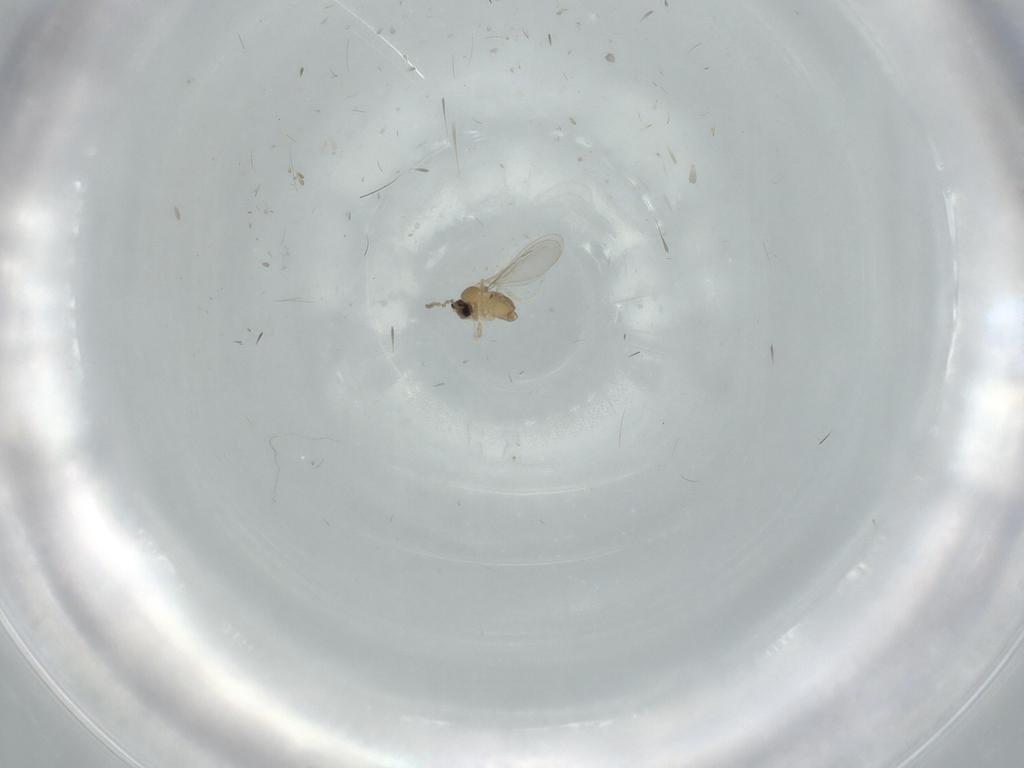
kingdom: Animalia
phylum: Arthropoda
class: Insecta
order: Diptera
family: Cecidomyiidae
